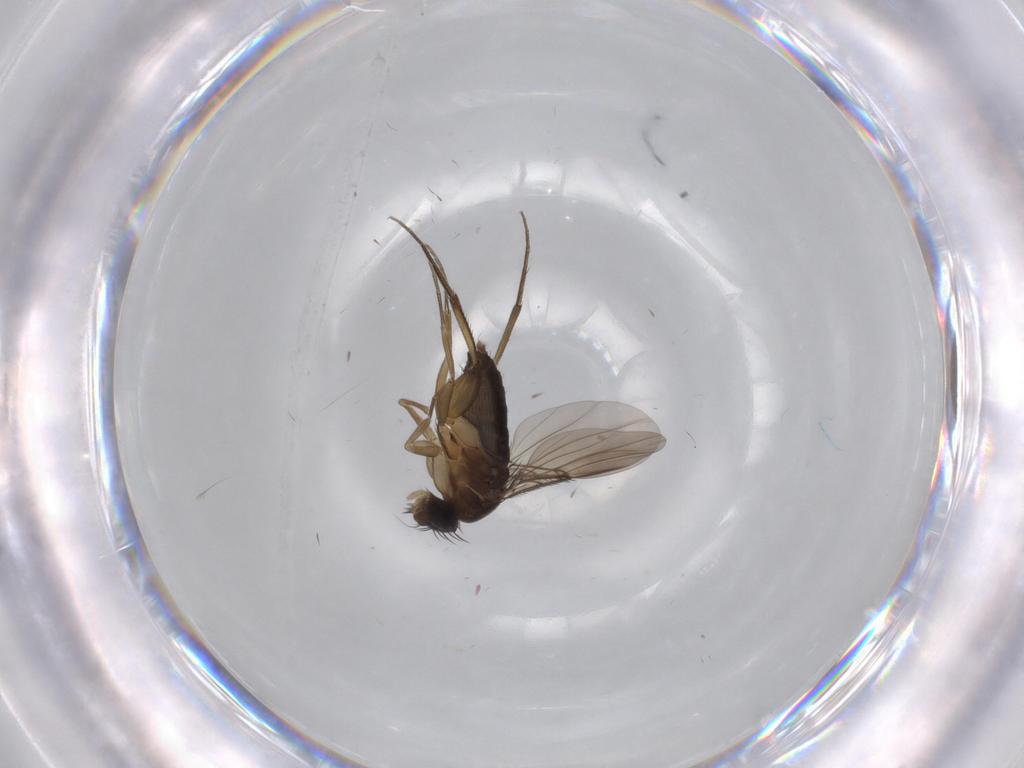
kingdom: Animalia
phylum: Arthropoda
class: Insecta
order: Diptera
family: Phoridae
